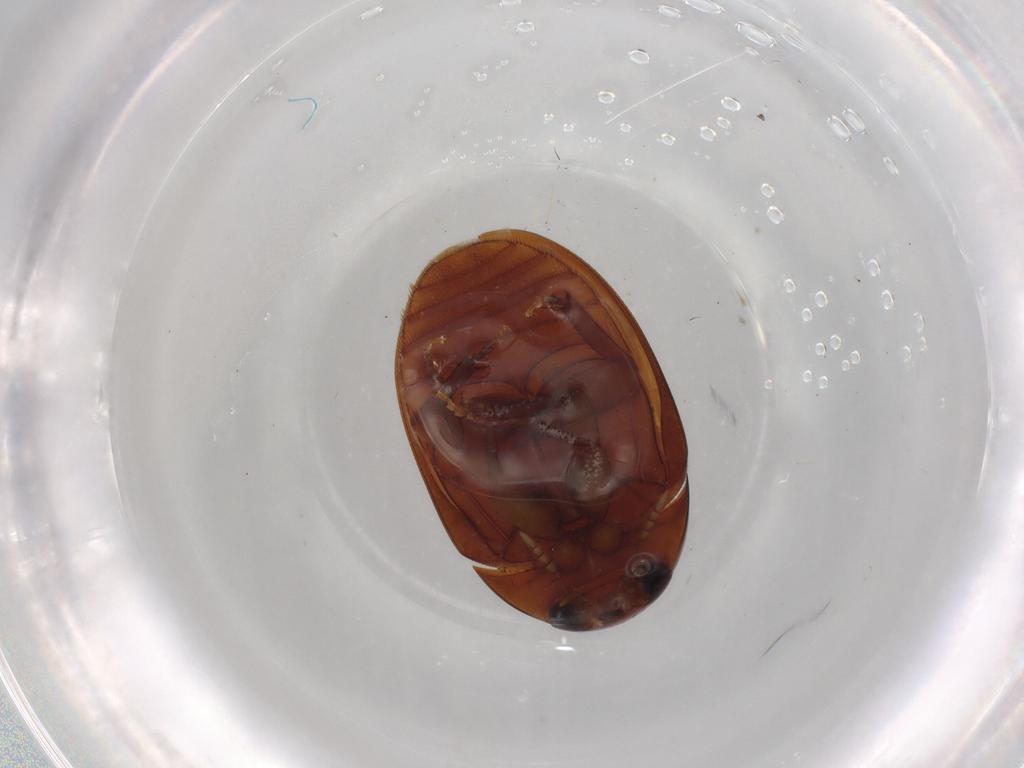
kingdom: Animalia
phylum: Arthropoda
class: Insecta
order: Coleoptera
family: Phalacridae
